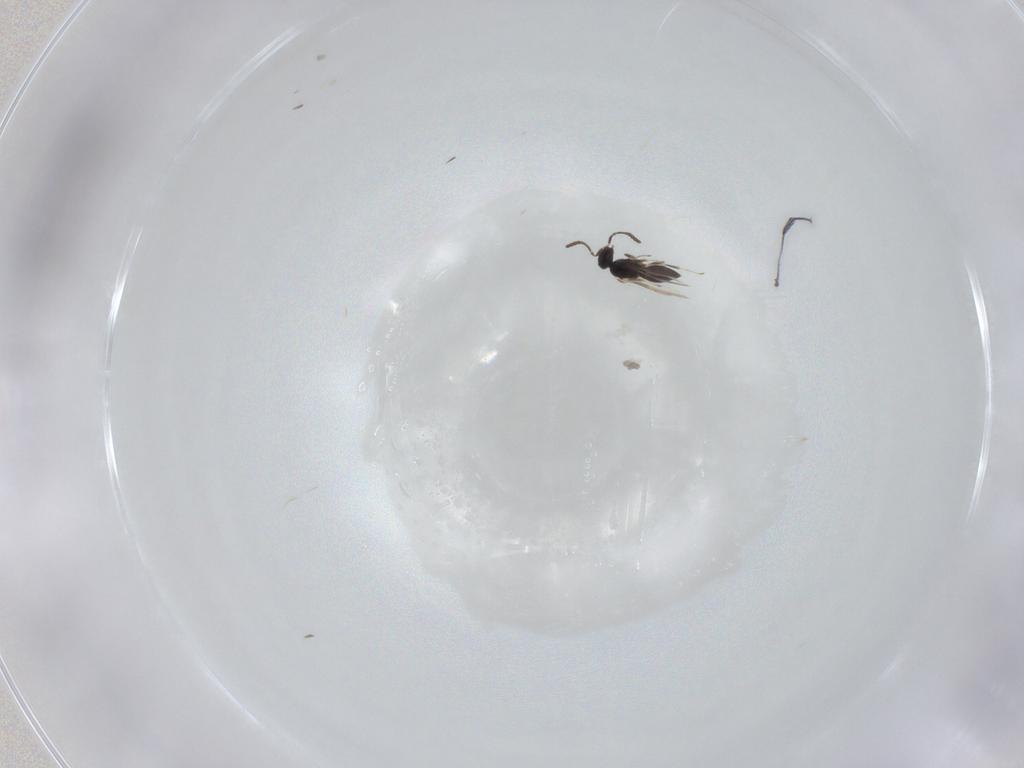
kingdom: Animalia
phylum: Arthropoda
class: Insecta
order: Hymenoptera
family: Scelionidae
